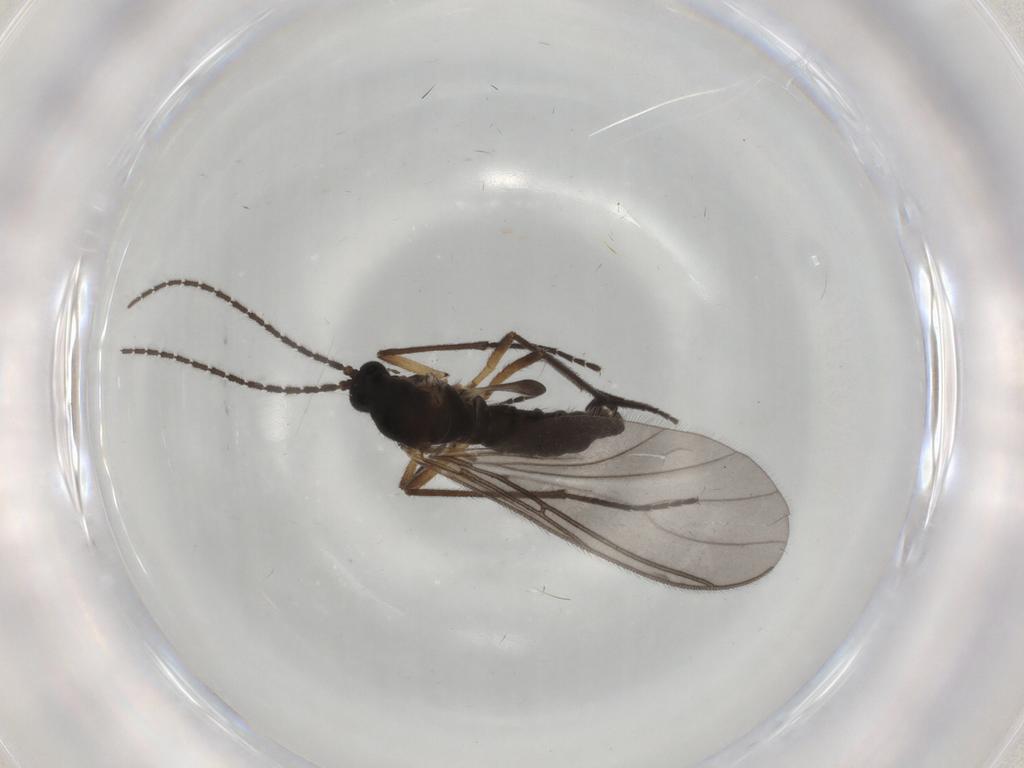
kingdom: Animalia
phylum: Arthropoda
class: Insecta
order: Diptera
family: Sciaridae
